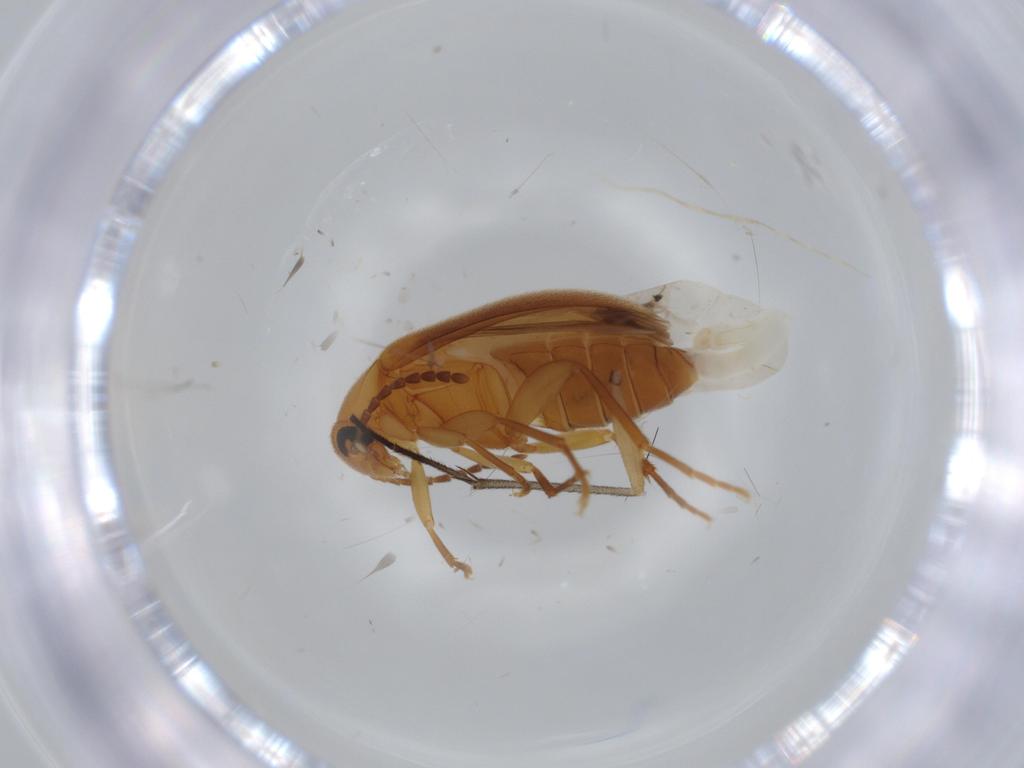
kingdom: Animalia
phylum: Arthropoda
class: Insecta
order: Coleoptera
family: Scraptiidae
